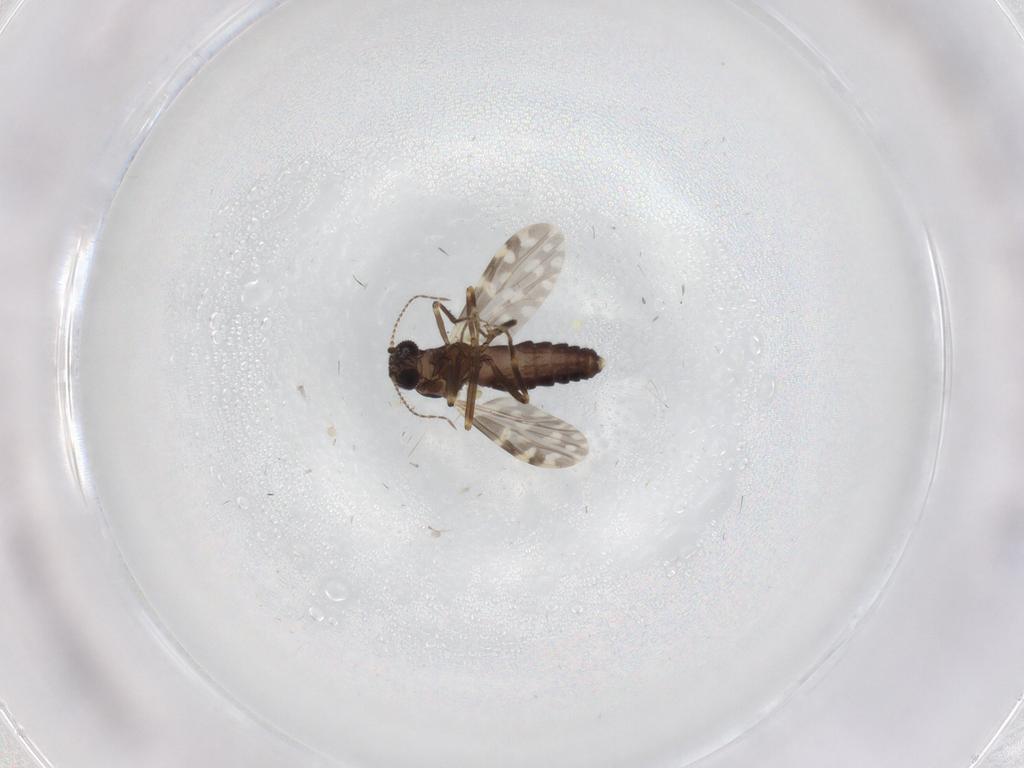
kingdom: Animalia
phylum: Arthropoda
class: Insecta
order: Diptera
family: Ceratopogonidae
